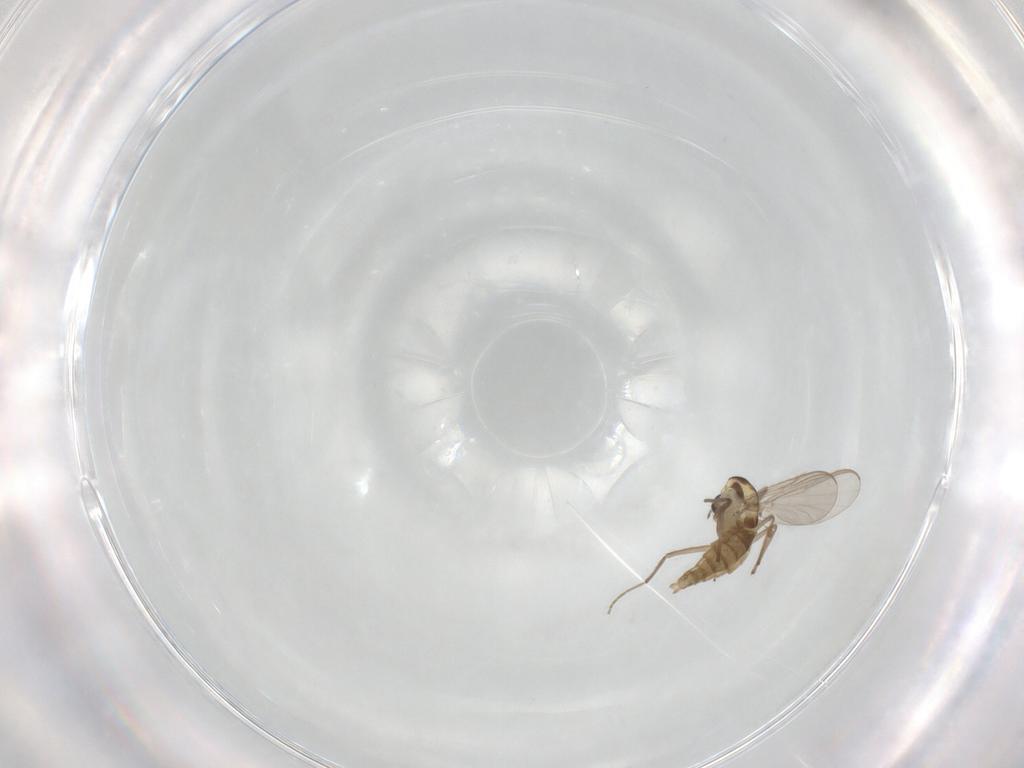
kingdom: Animalia
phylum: Arthropoda
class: Insecta
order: Diptera
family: Chironomidae
